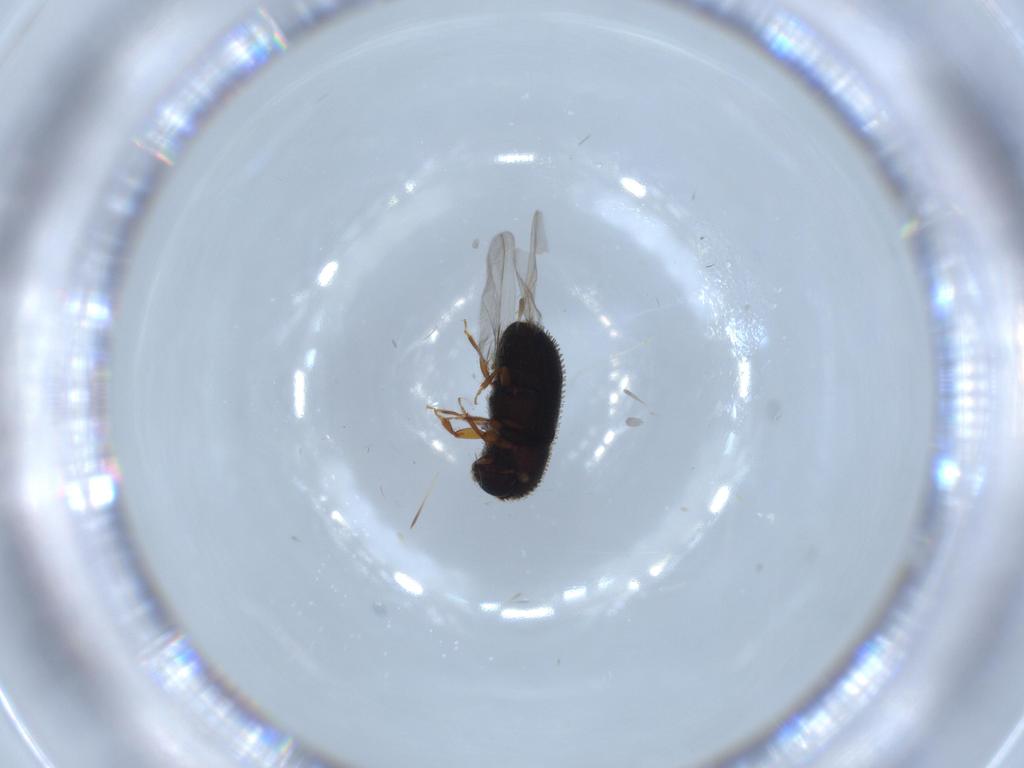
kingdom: Animalia
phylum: Arthropoda
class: Insecta
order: Coleoptera
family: Curculionidae
